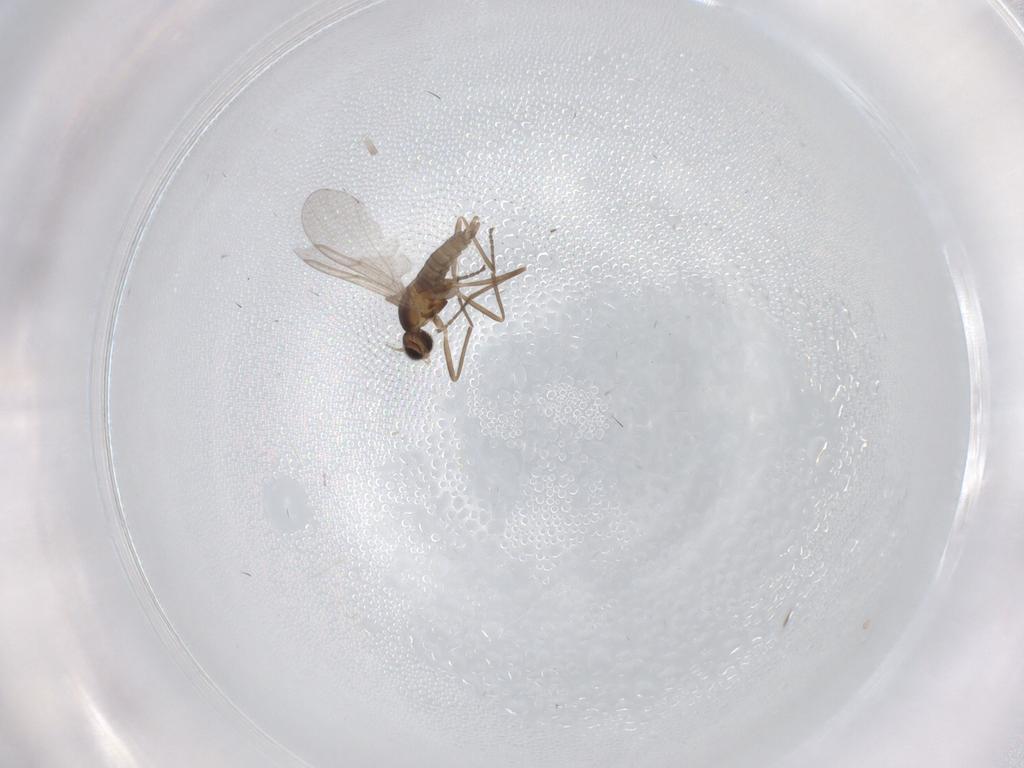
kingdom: Animalia
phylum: Arthropoda
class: Insecta
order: Diptera
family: Cecidomyiidae
